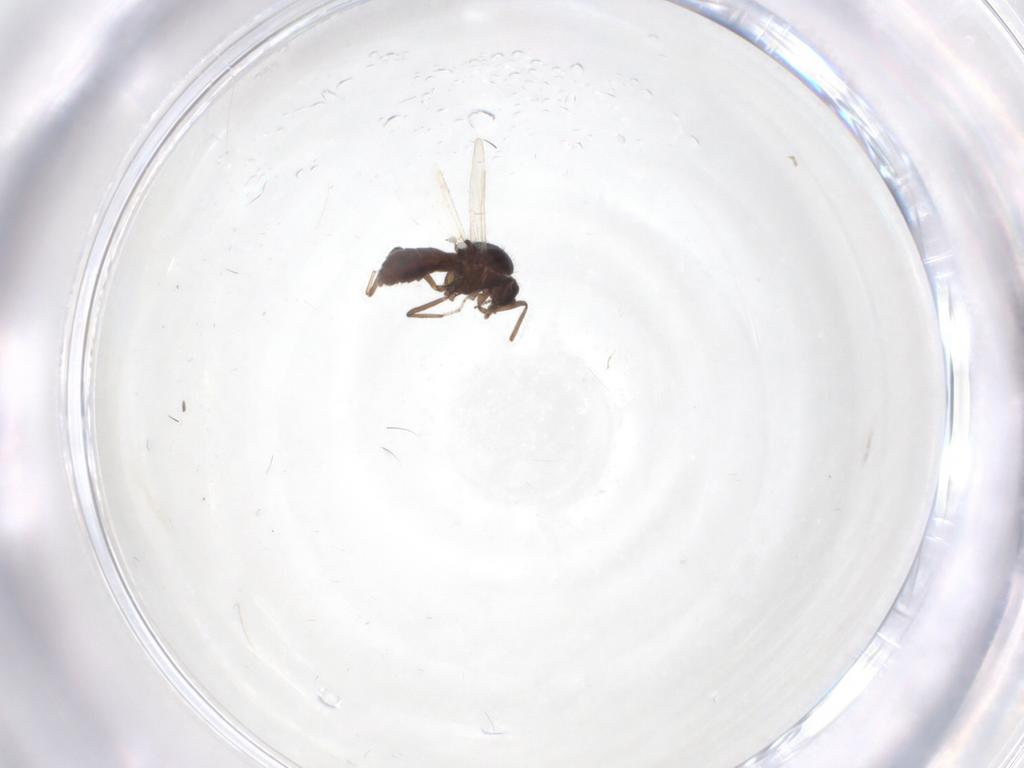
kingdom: Animalia
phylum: Arthropoda
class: Insecta
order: Diptera
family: Ceratopogonidae
